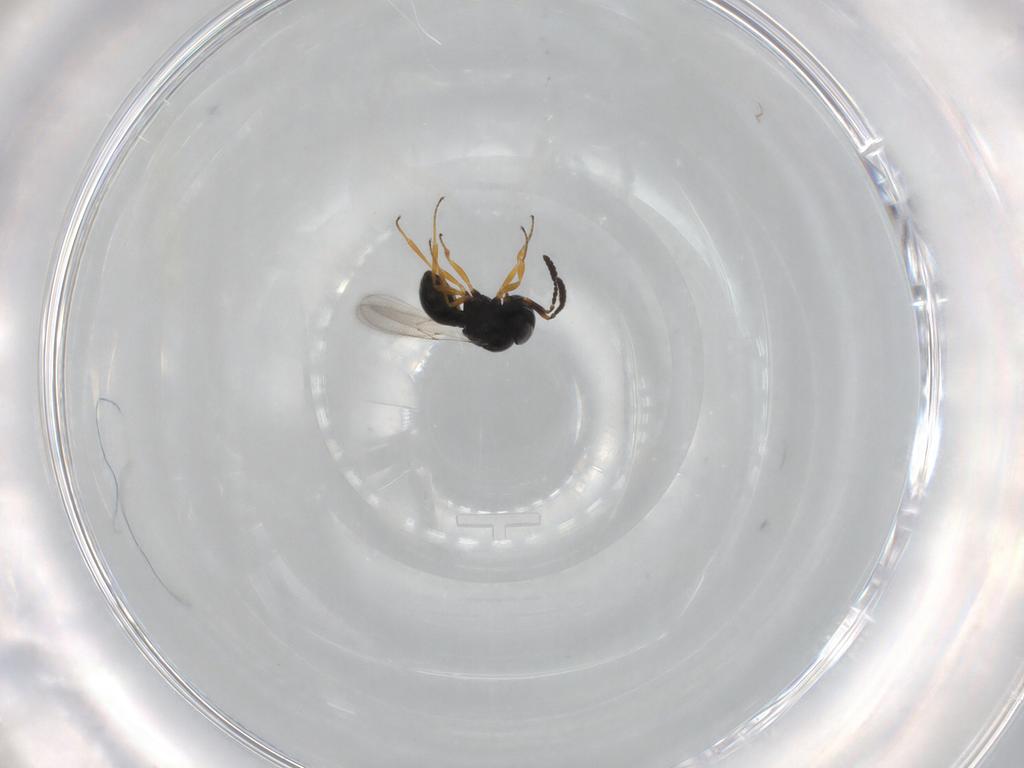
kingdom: Animalia
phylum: Arthropoda
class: Insecta
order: Hymenoptera
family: Scelionidae
